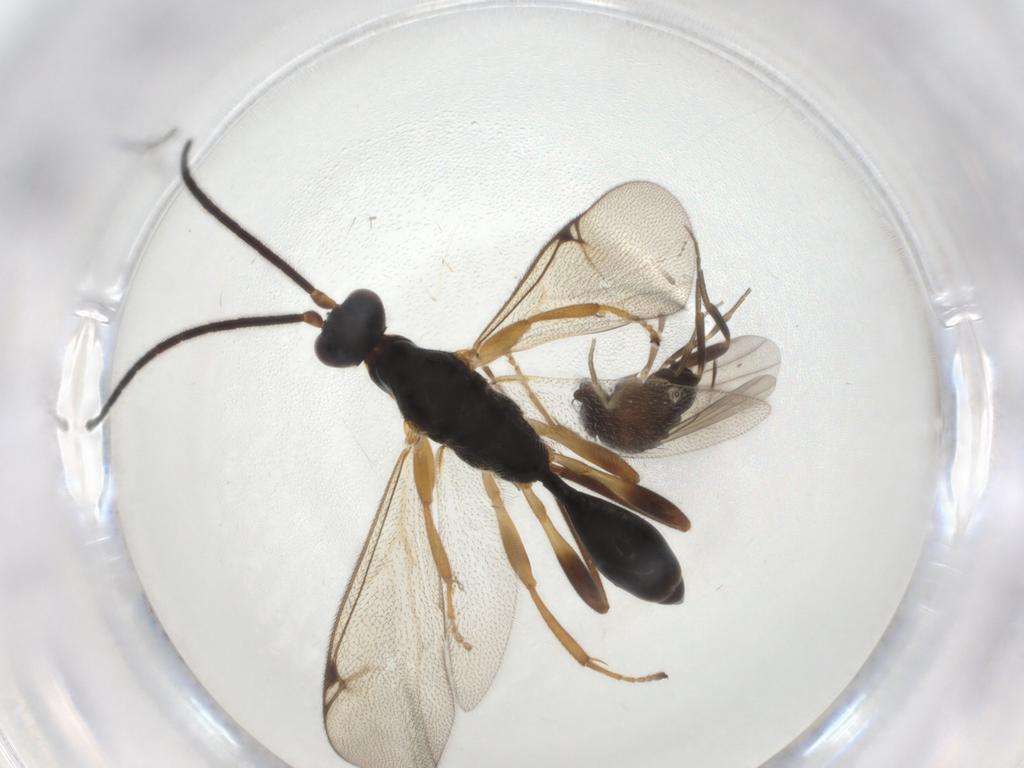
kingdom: Animalia
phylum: Arthropoda
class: Insecta
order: Diptera
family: Cecidomyiidae
